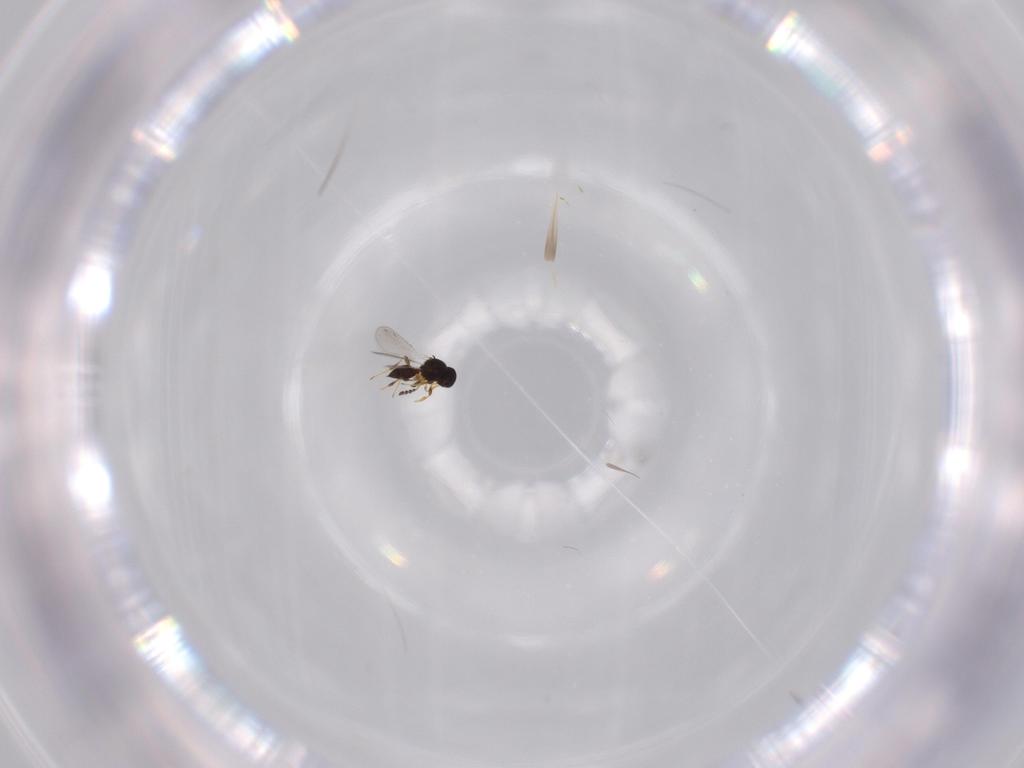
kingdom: Animalia
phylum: Arthropoda
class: Insecta
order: Hymenoptera
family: Platygastridae
